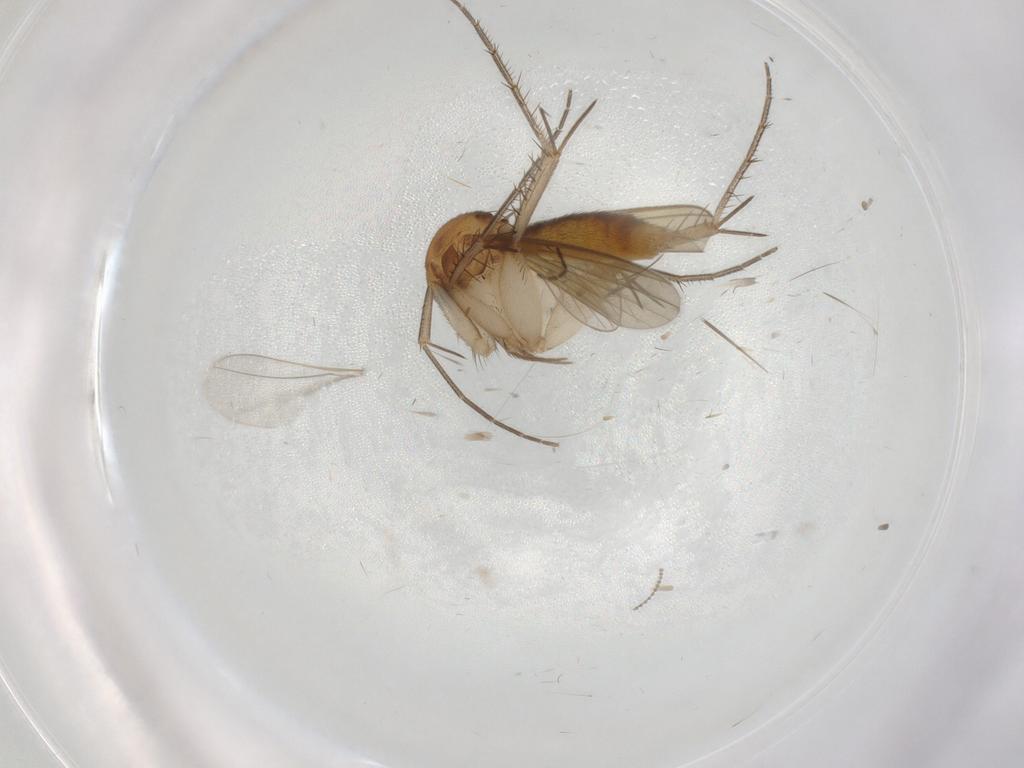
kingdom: Animalia
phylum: Arthropoda
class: Insecta
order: Diptera
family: Mycetophilidae
